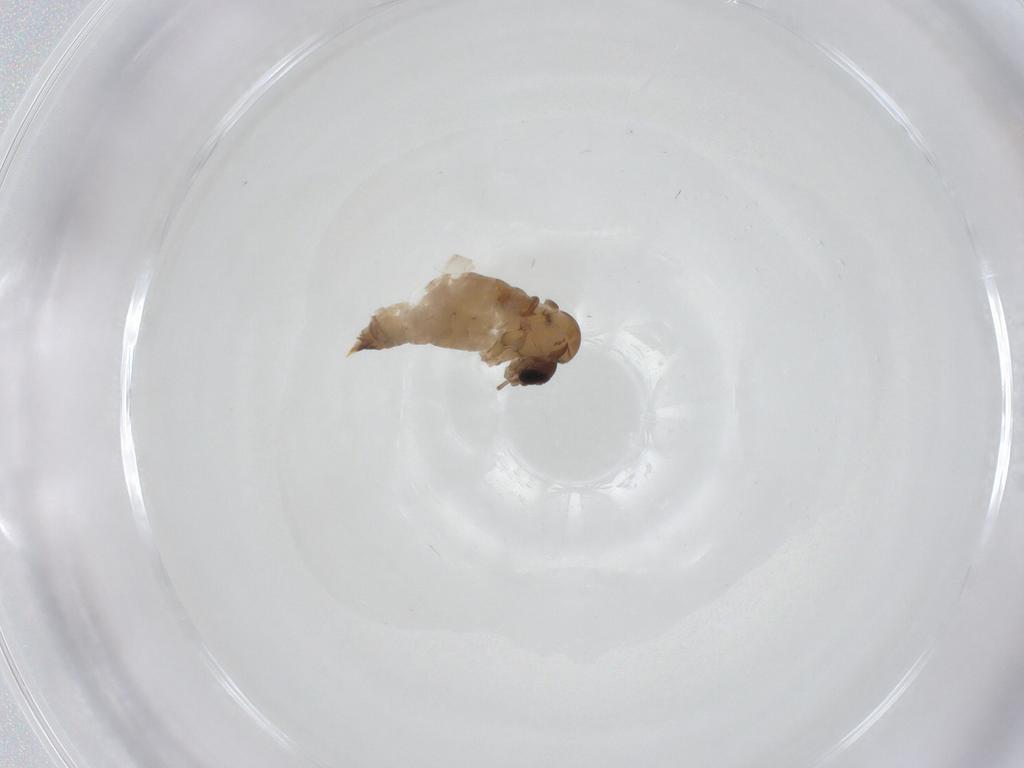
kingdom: Animalia
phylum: Arthropoda
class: Insecta
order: Diptera
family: Psychodidae
